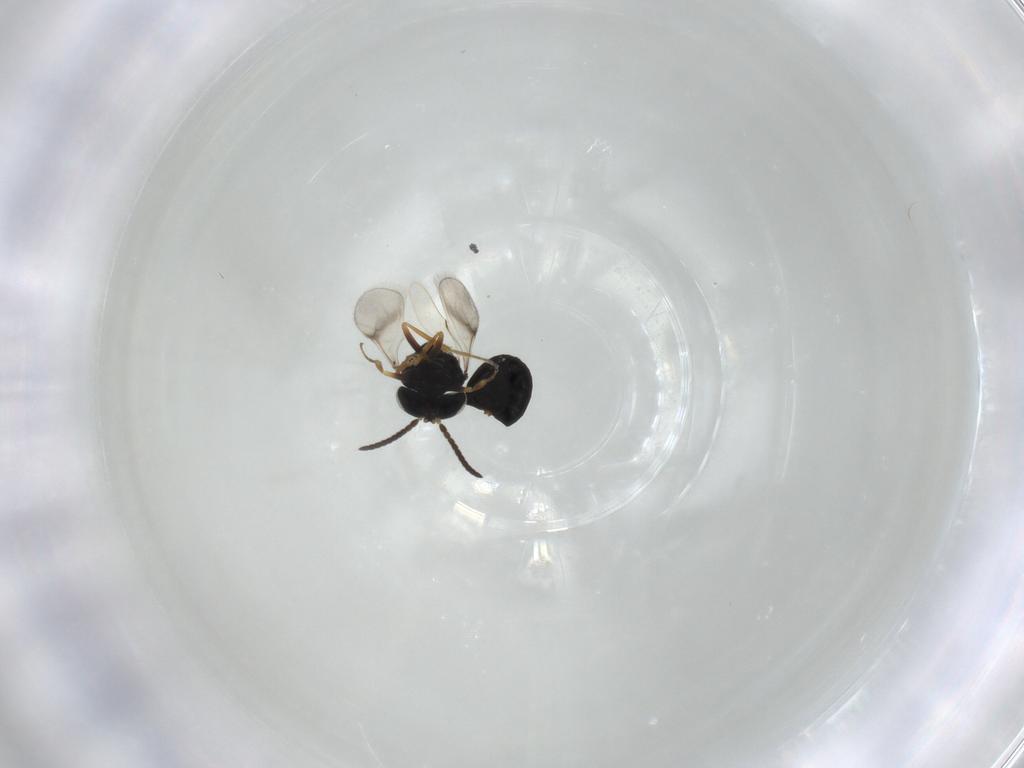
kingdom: Animalia
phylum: Arthropoda
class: Insecta
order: Hymenoptera
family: Scelionidae
